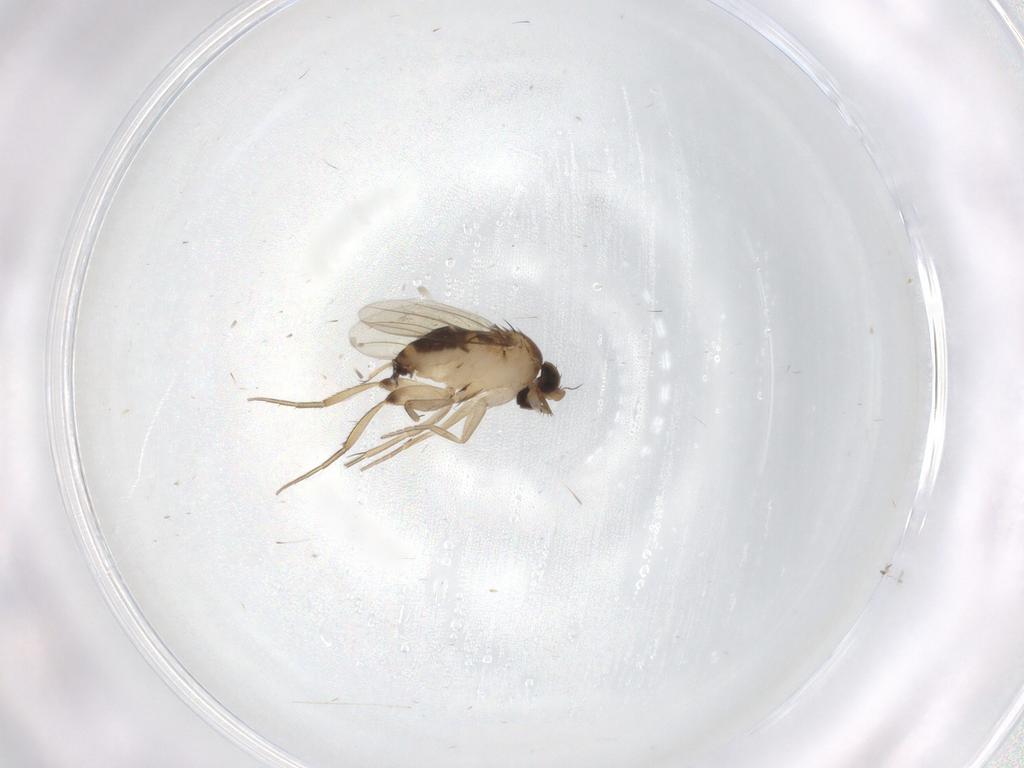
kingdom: Animalia
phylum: Arthropoda
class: Insecta
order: Diptera
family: Phoridae
